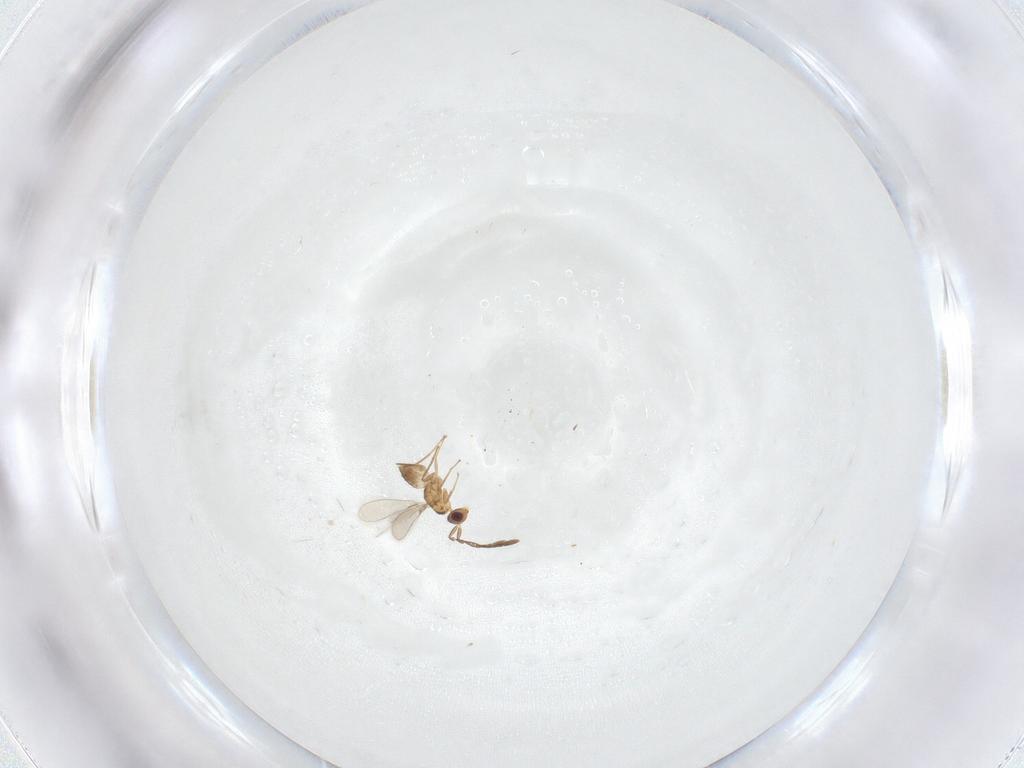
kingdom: Animalia
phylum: Arthropoda
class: Insecta
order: Hymenoptera
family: Mymaridae
